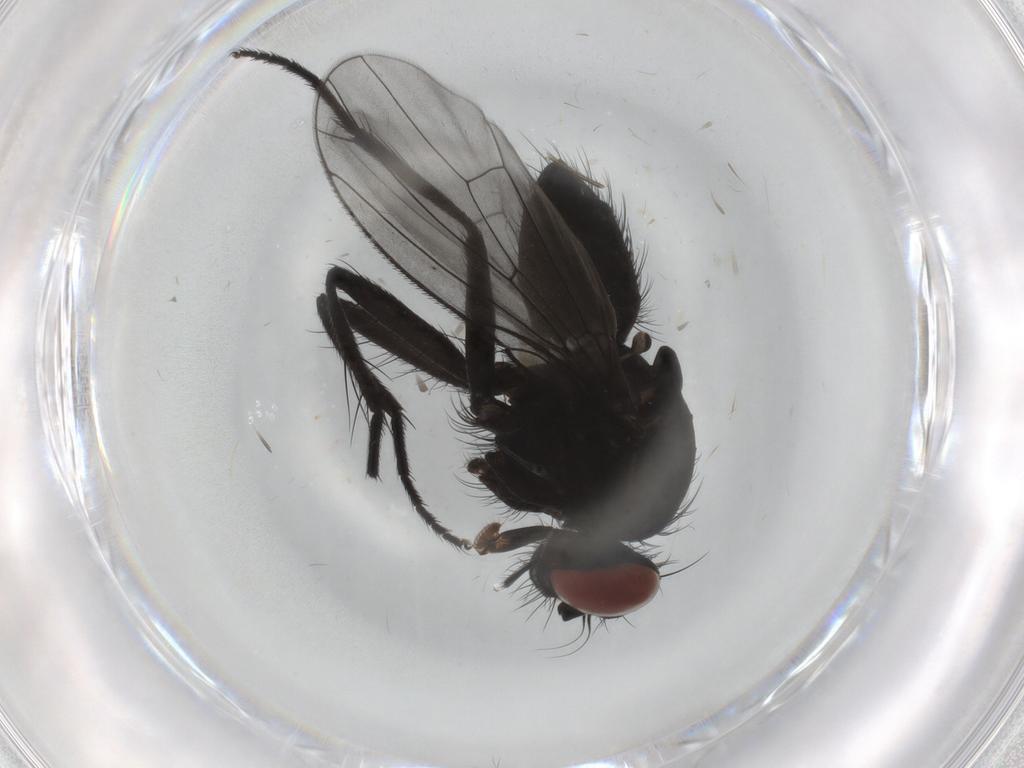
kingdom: Animalia
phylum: Arthropoda
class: Insecta
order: Diptera
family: Muscidae
